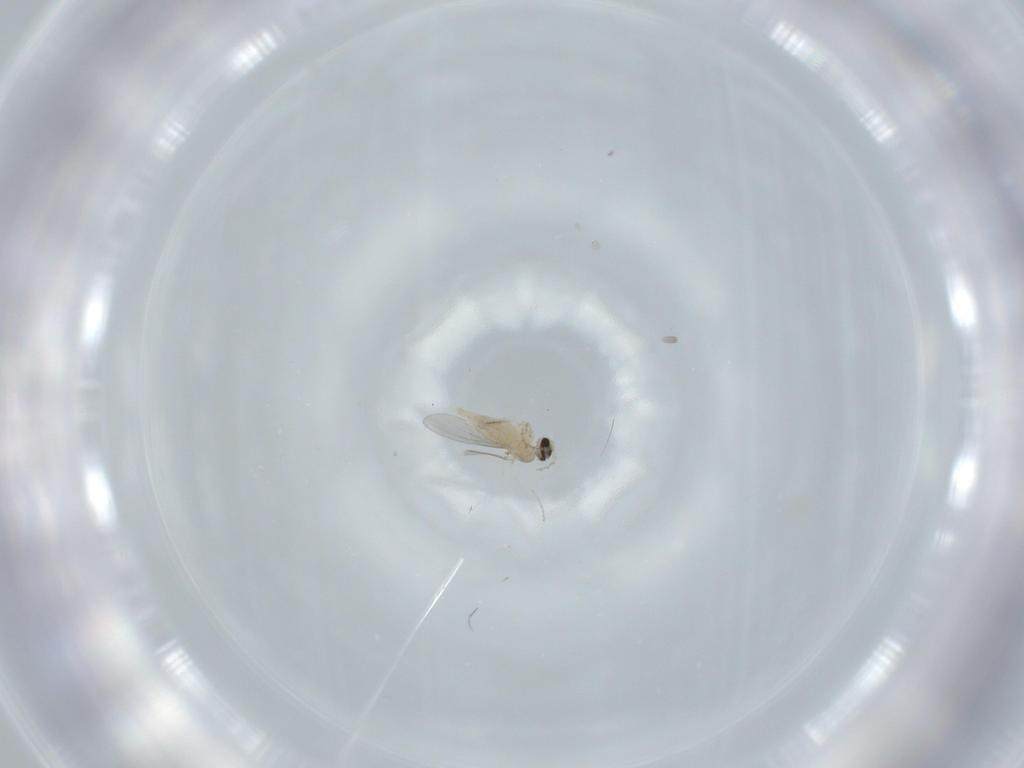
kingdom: Animalia
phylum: Arthropoda
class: Insecta
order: Diptera
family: Cecidomyiidae
